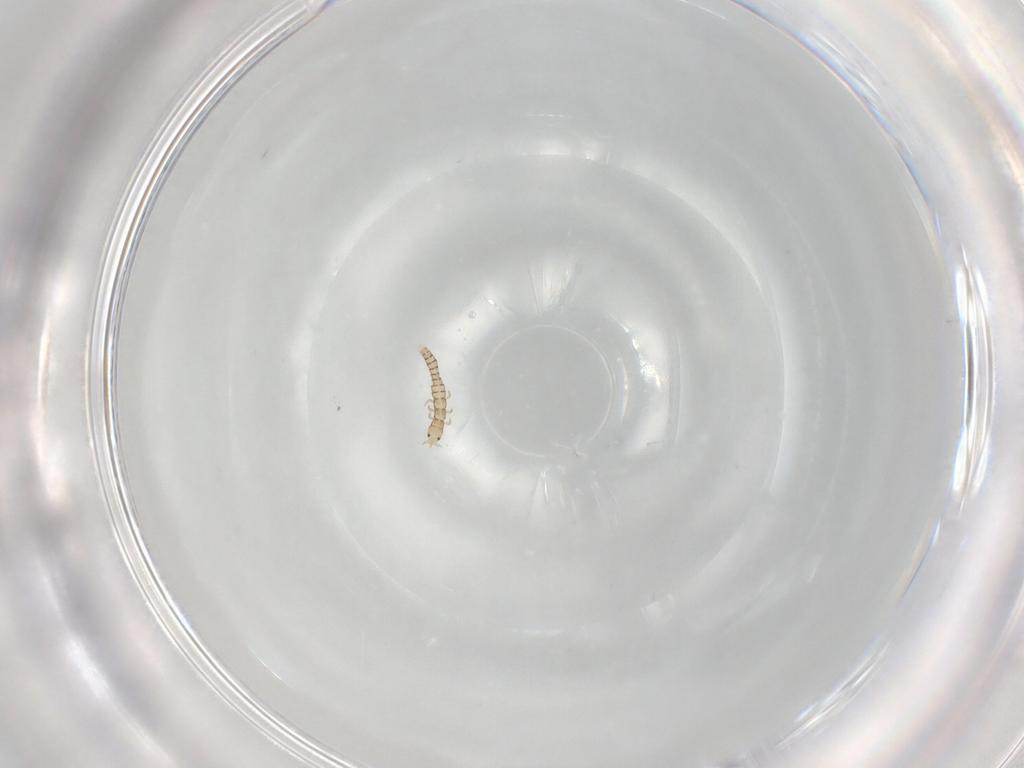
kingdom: Animalia
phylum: Arthropoda
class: Insecta
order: Neuroptera
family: Mantispidae
